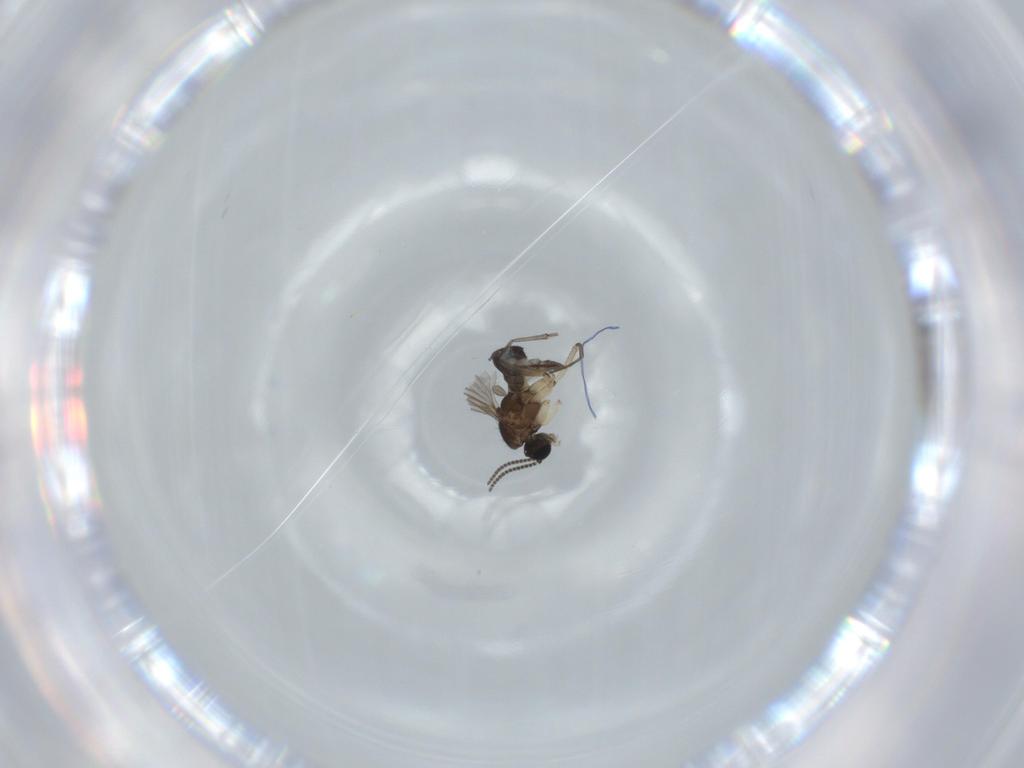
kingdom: Animalia
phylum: Arthropoda
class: Insecta
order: Diptera
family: Sciaridae
